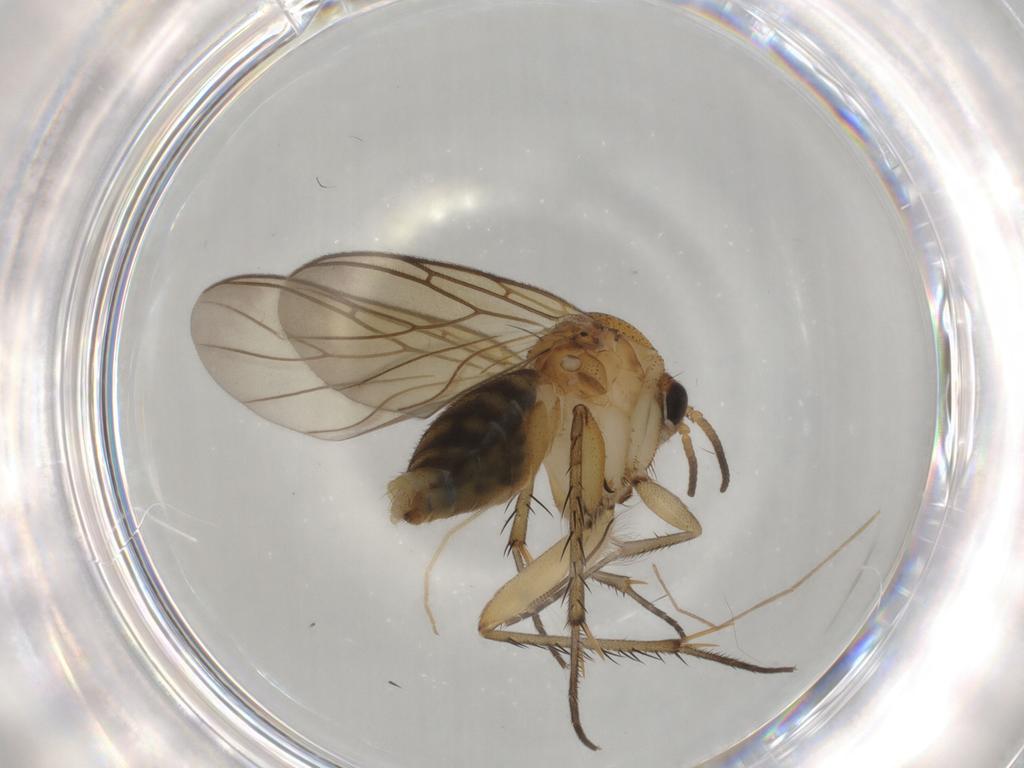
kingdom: Animalia
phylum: Arthropoda
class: Insecta
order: Diptera
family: Sphaeroceridae
